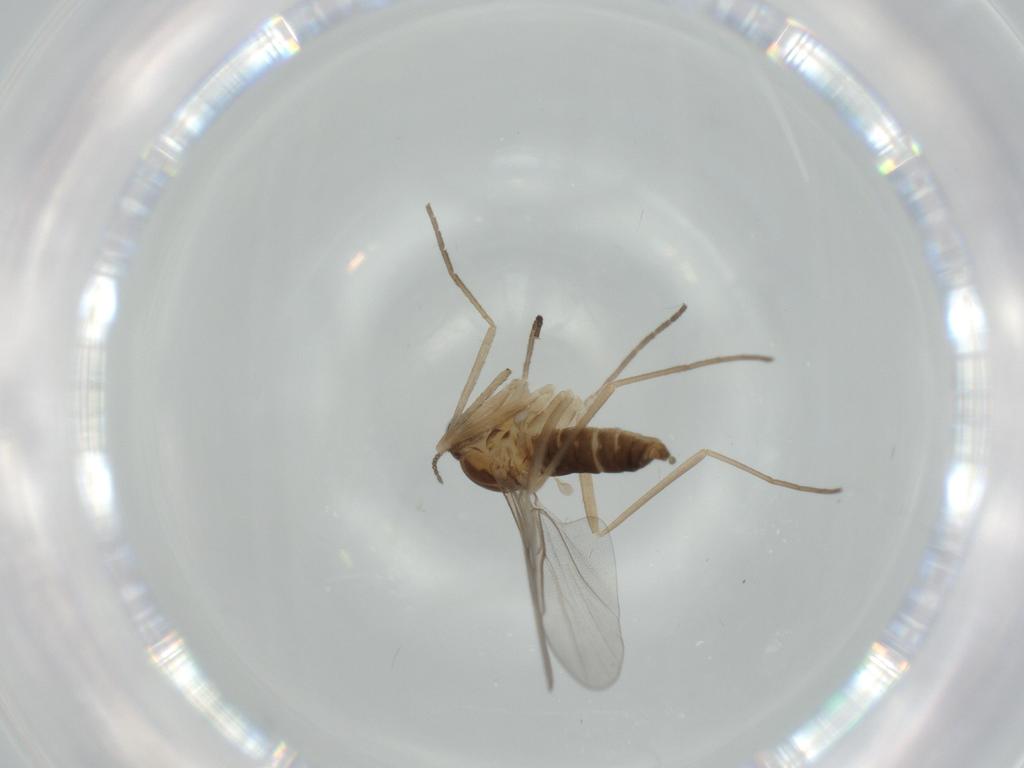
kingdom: Animalia
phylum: Arthropoda
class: Insecta
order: Diptera
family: Cecidomyiidae
